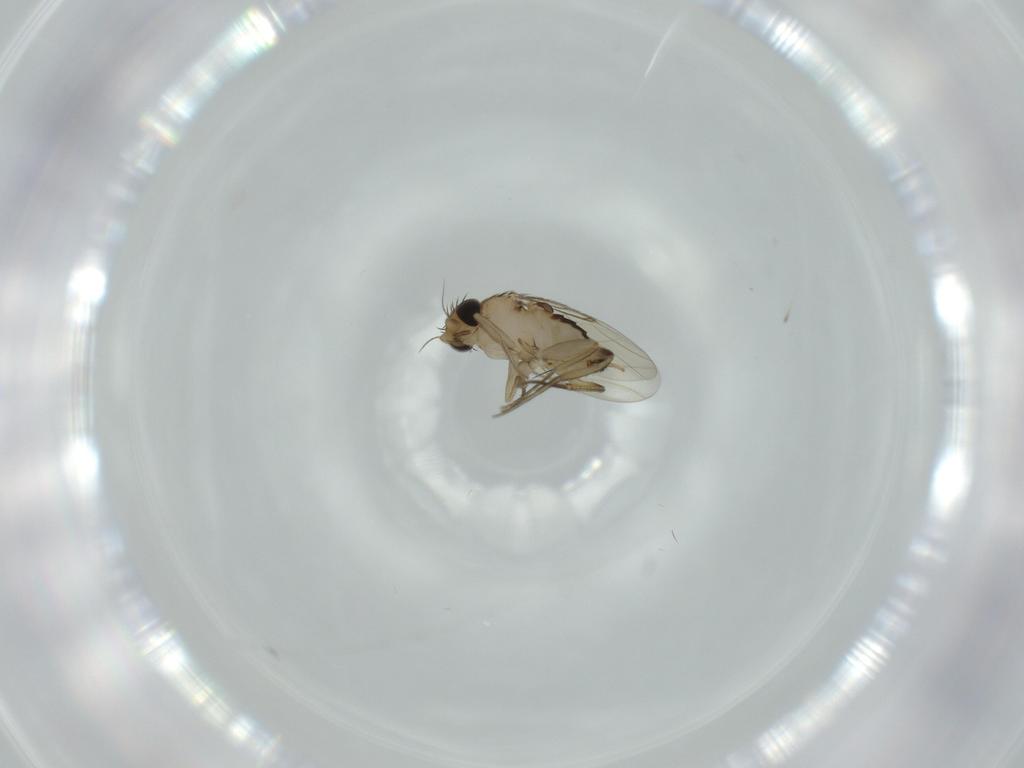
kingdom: Animalia
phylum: Arthropoda
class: Insecta
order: Diptera
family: Phoridae
